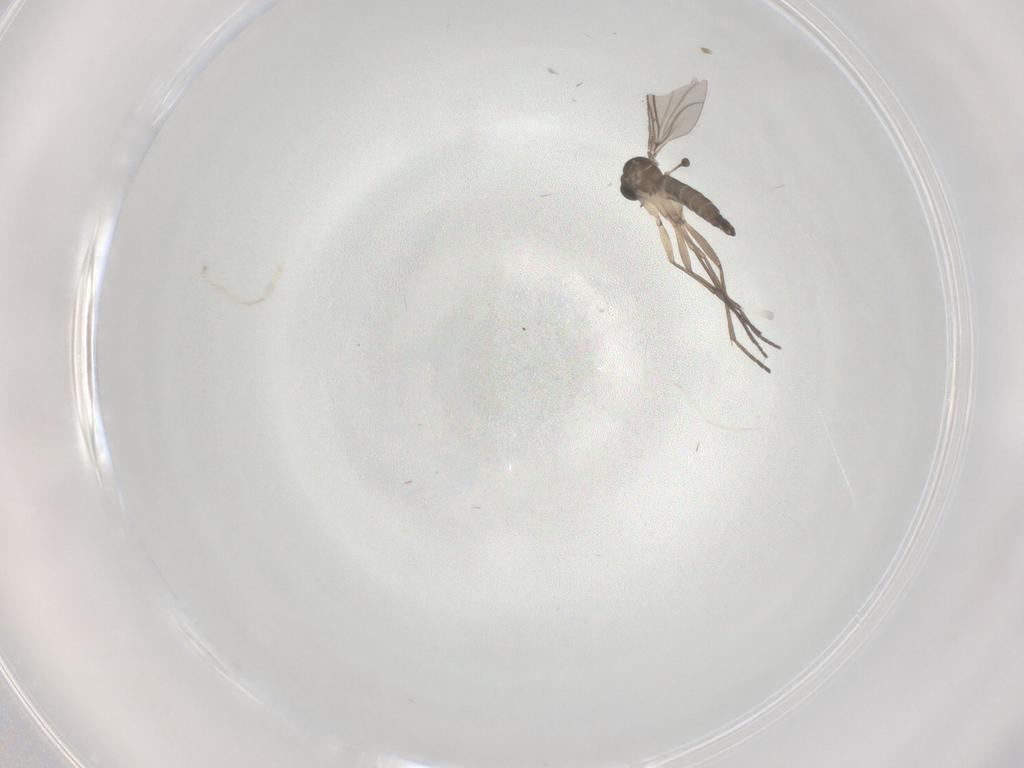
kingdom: Animalia
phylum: Arthropoda
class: Insecta
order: Diptera
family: Sciaridae
